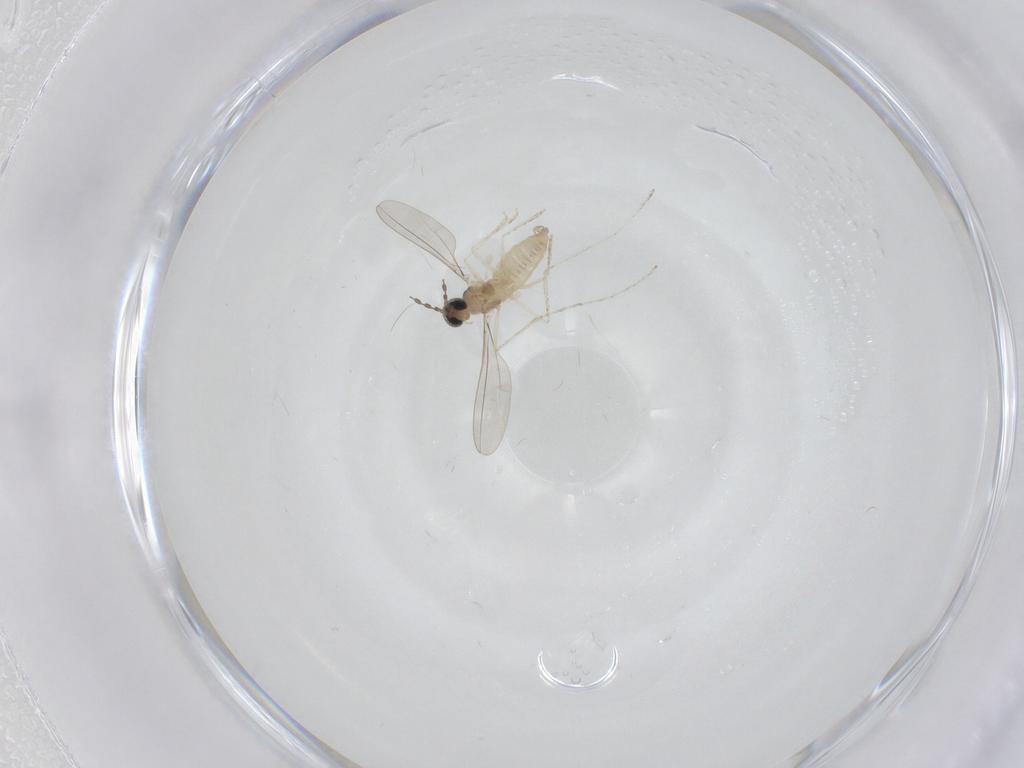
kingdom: Animalia
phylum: Arthropoda
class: Insecta
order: Diptera
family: Cecidomyiidae
